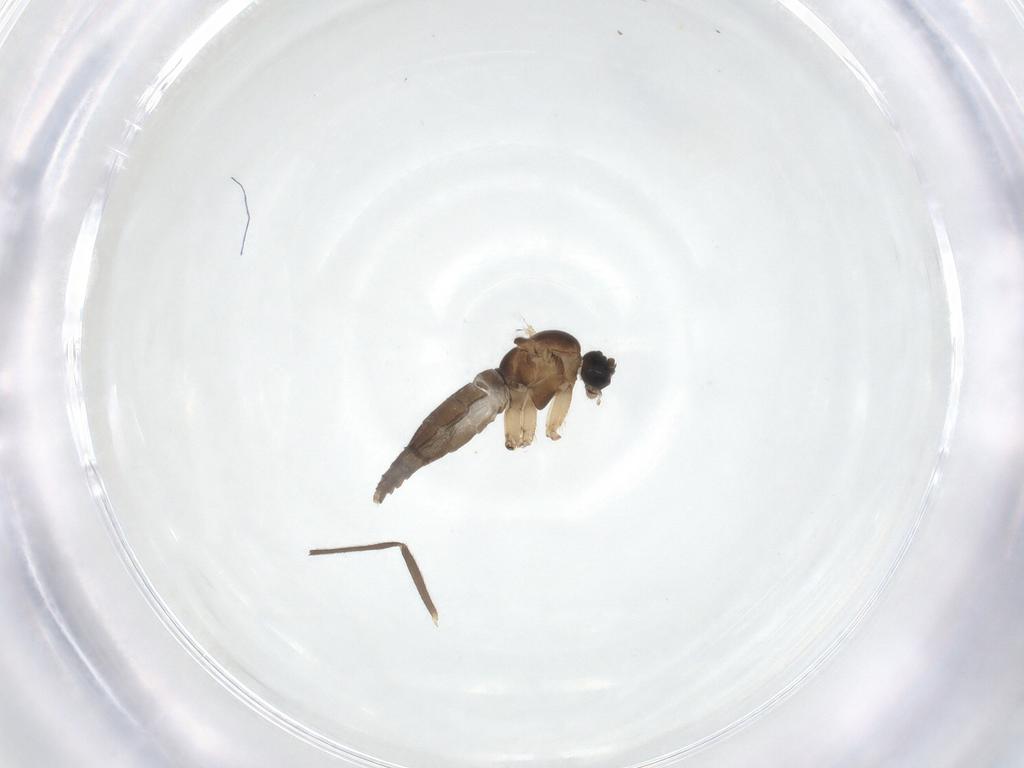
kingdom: Animalia
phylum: Arthropoda
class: Insecta
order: Diptera
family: Sciaridae
